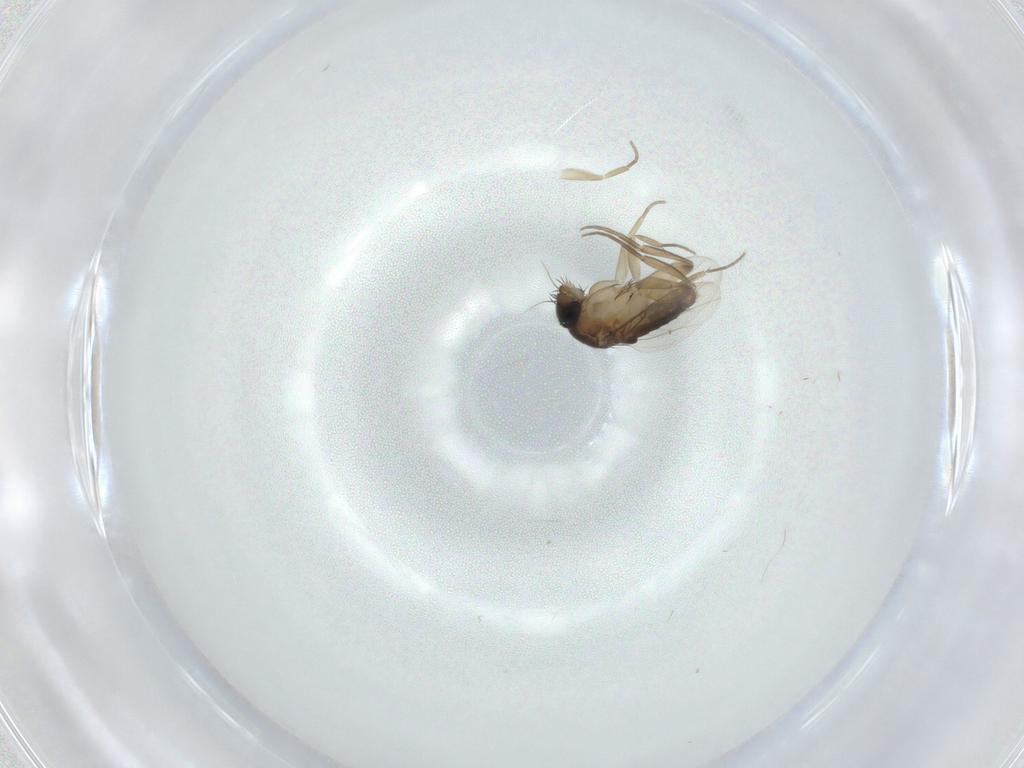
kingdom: Animalia
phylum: Arthropoda
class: Insecta
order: Diptera
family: Phoridae
